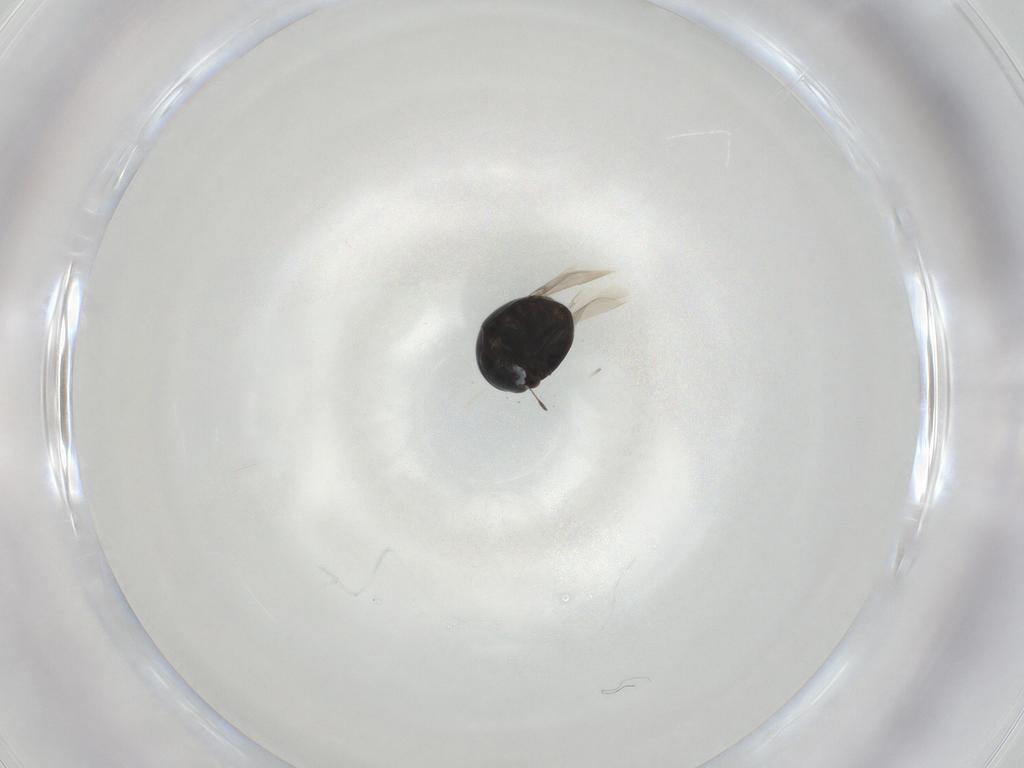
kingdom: Animalia
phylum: Arthropoda
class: Insecta
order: Coleoptera
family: Cybocephalidae
